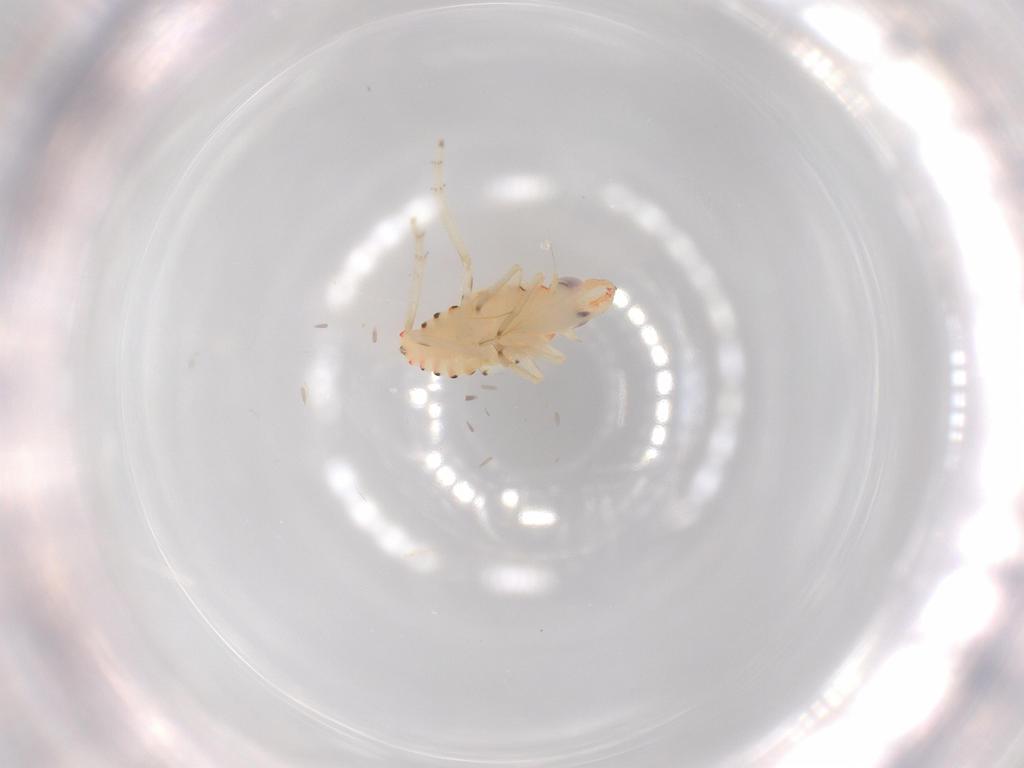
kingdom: Animalia
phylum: Arthropoda
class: Insecta
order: Hemiptera
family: Tropiduchidae
